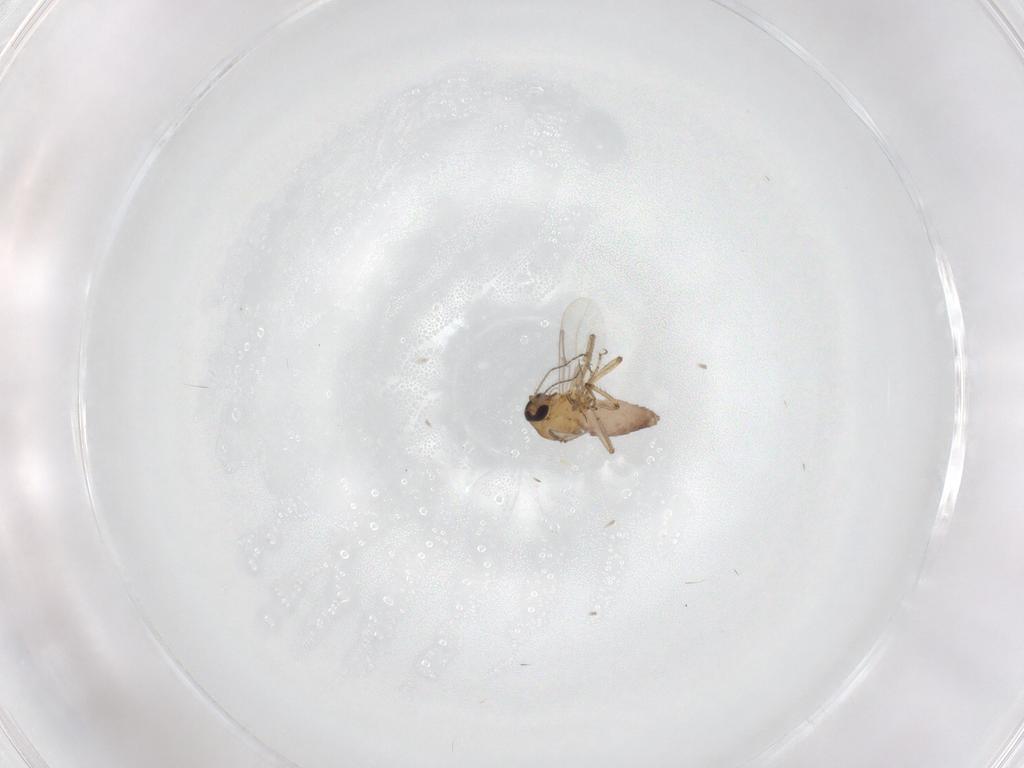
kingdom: Animalia
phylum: Arthropoda
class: Insecta
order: Diptera
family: Ceratopogonidae
